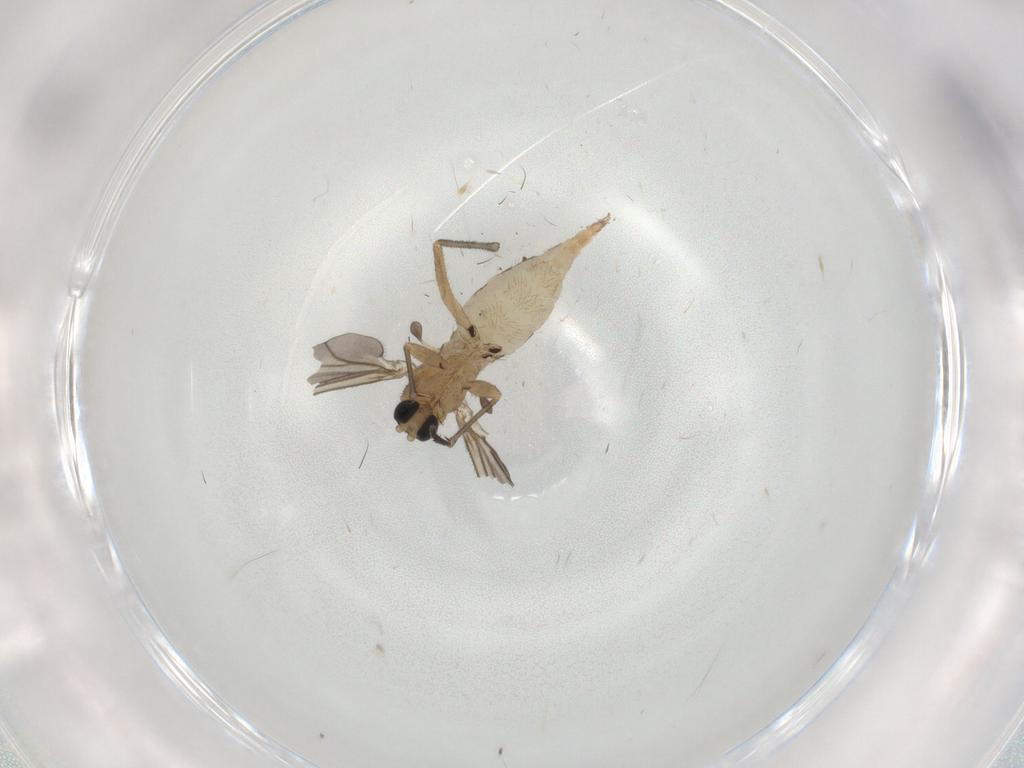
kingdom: Animalia
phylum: Arthropoda
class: Insecta
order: Diptera
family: Sciaridae
